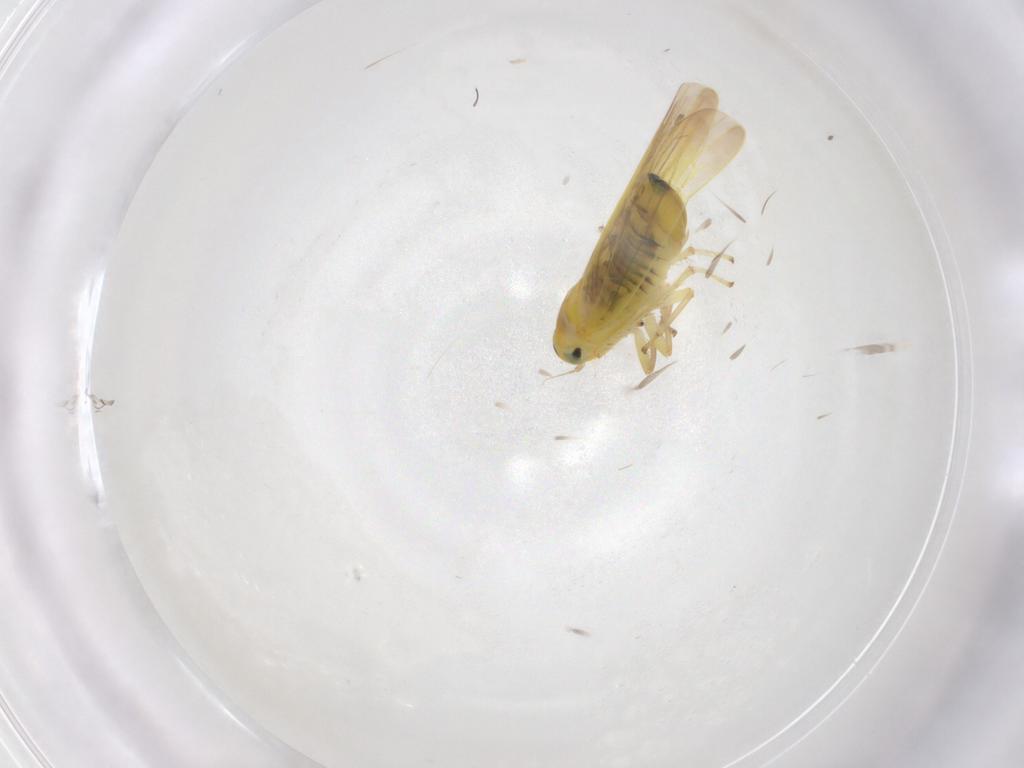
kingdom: Animalia
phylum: Arthropoda
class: Insecta
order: Hemiptera
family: Cicadellidae
